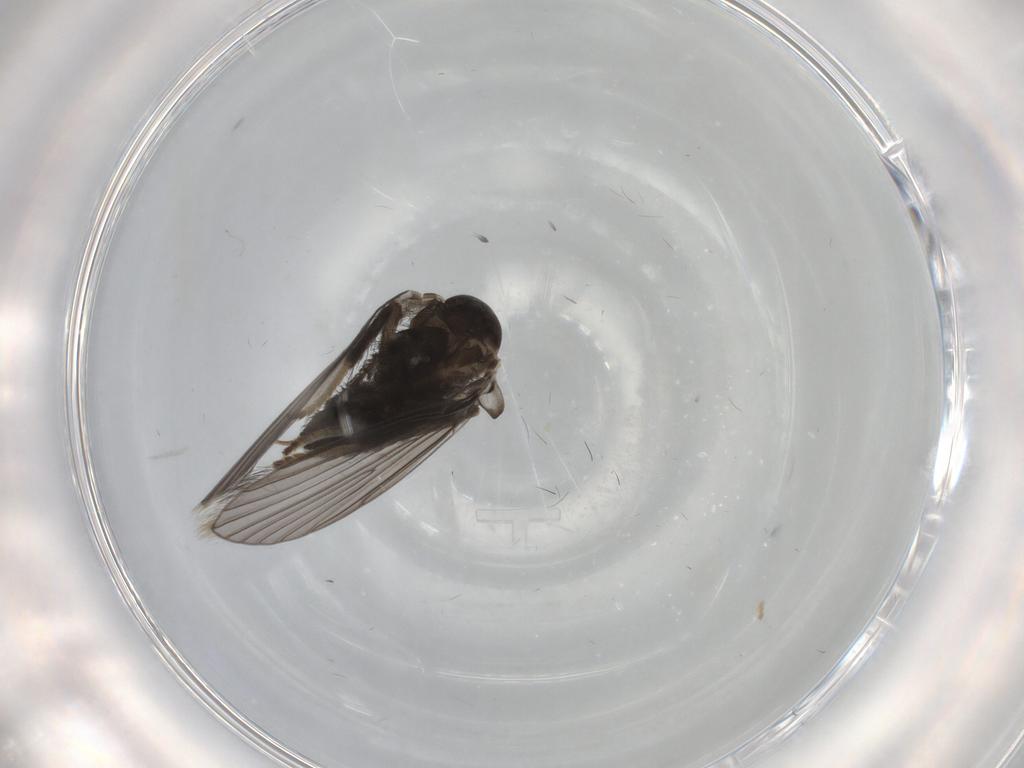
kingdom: Animalia
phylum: Arthropoda
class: Insecta
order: Diptera
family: Psychodidae
